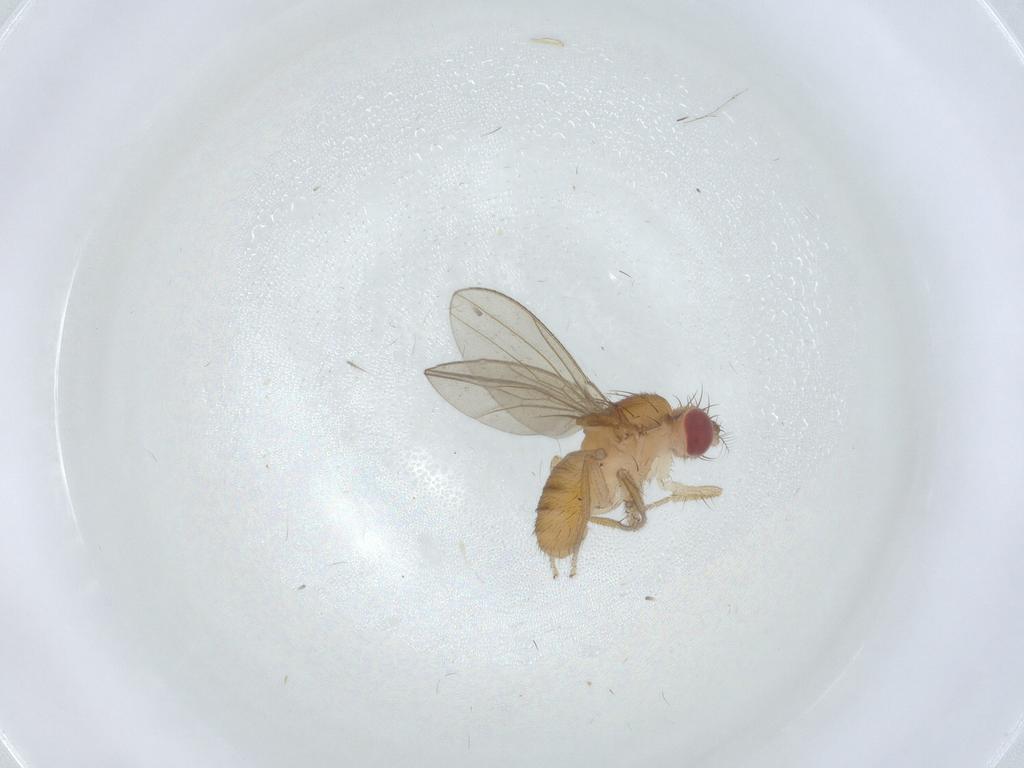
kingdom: Animalia
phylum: Arthropoda
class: Insecta
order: Diptera
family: Drosophilidae
